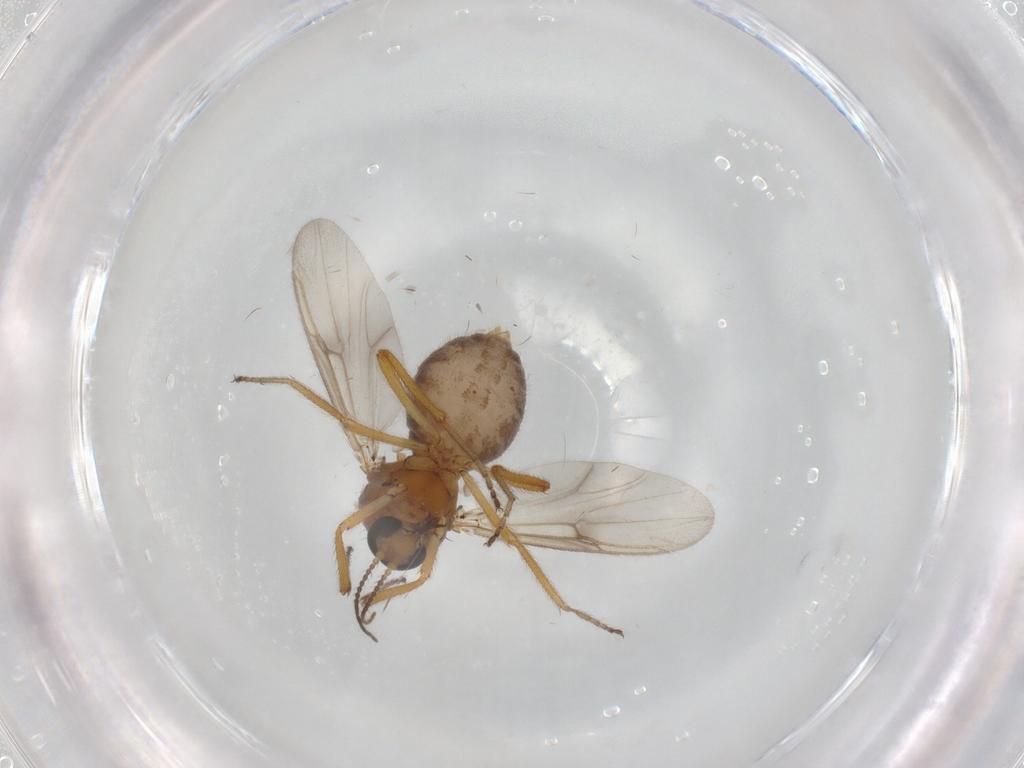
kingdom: Animalia
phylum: Arthropoda
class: Insecta
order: Diptera
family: Ceratopogonidae
